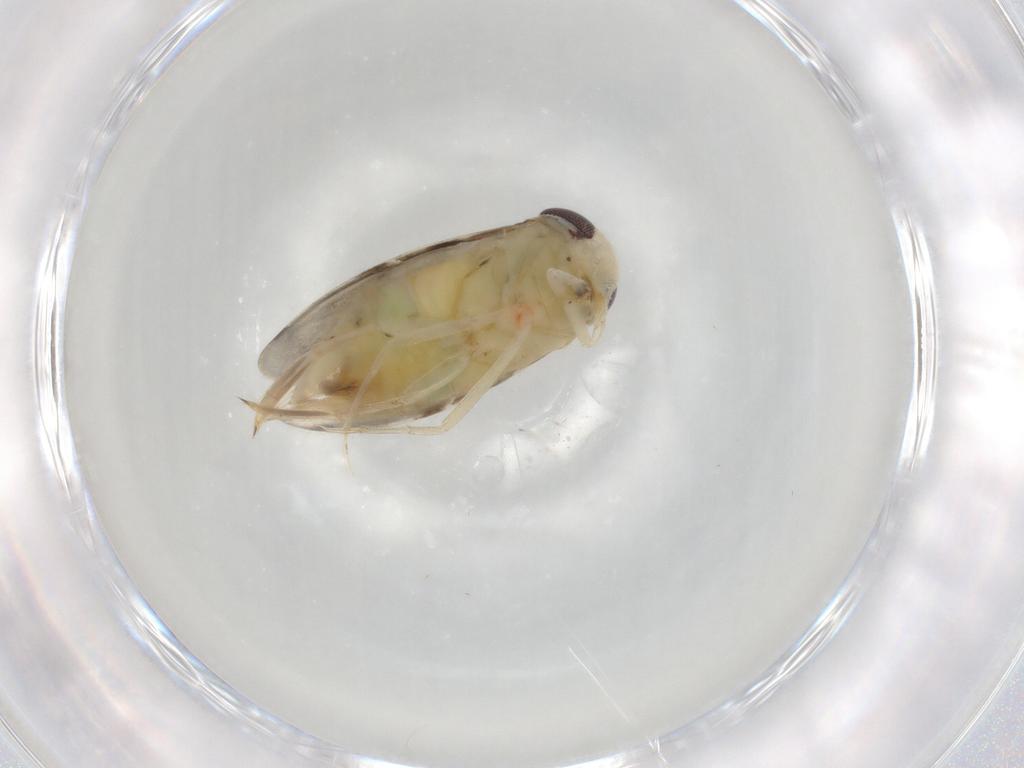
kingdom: Animalia
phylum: Arthropoda
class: Insecta
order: Hemiptera
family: Corixidae
